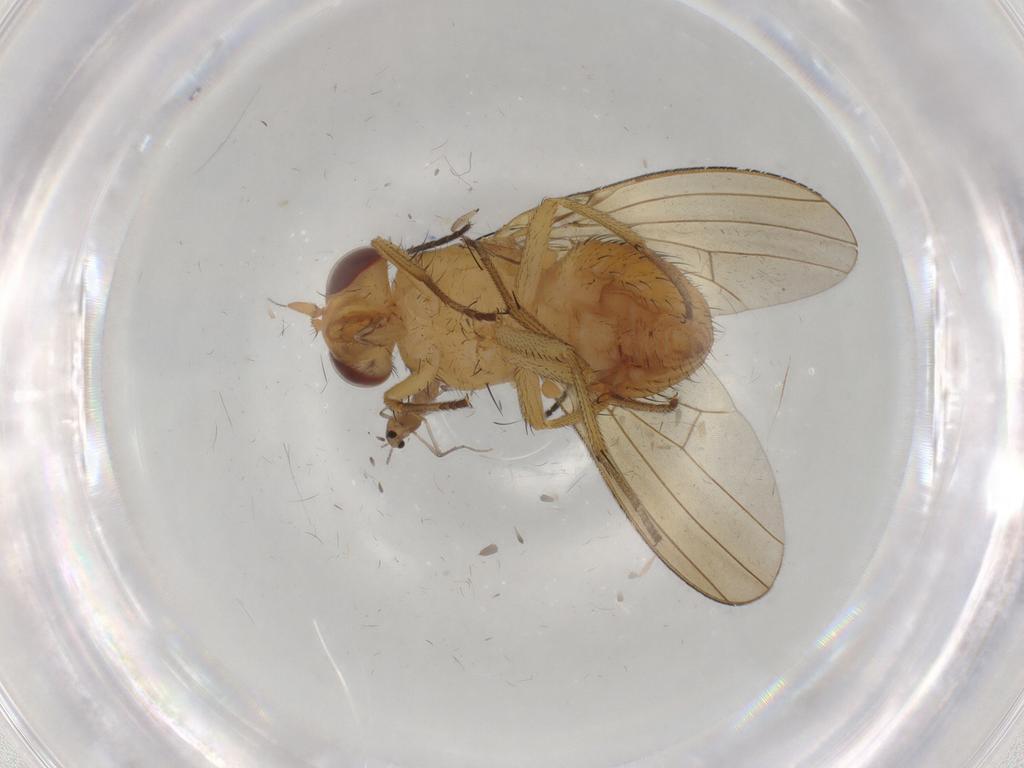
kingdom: Animalia
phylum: Arthropoda
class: Insecta
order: Diptera
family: Sciaridae
